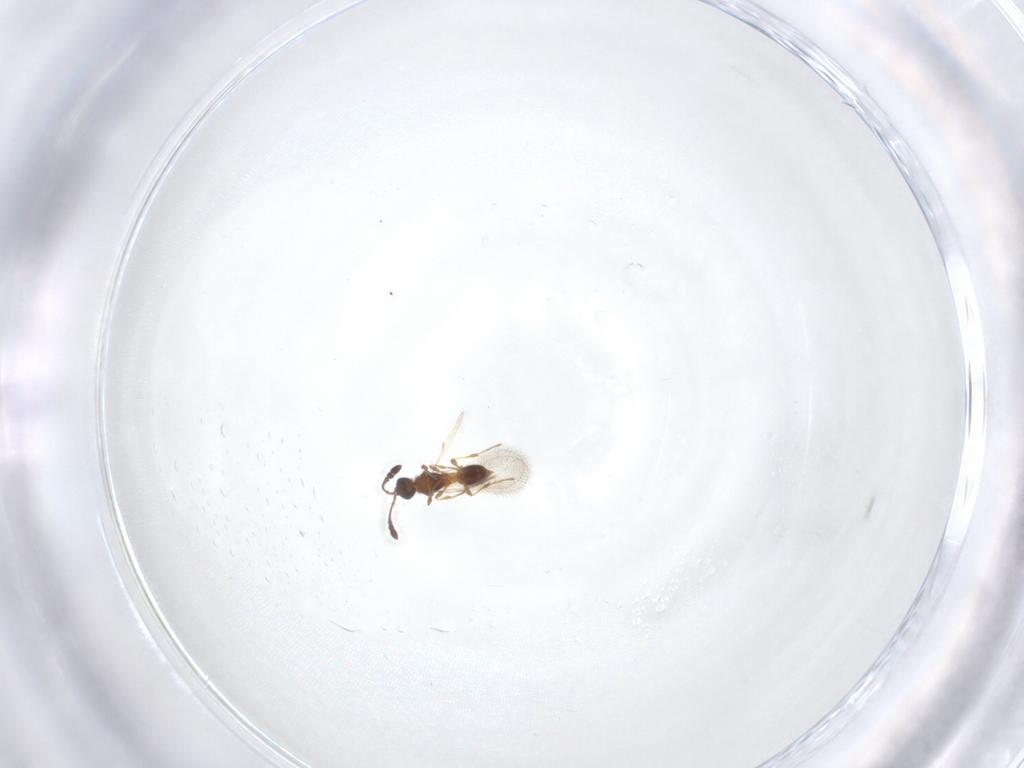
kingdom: Animalia
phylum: Arthropoda
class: Insecta
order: Hymenoptera
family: Diapriidae
